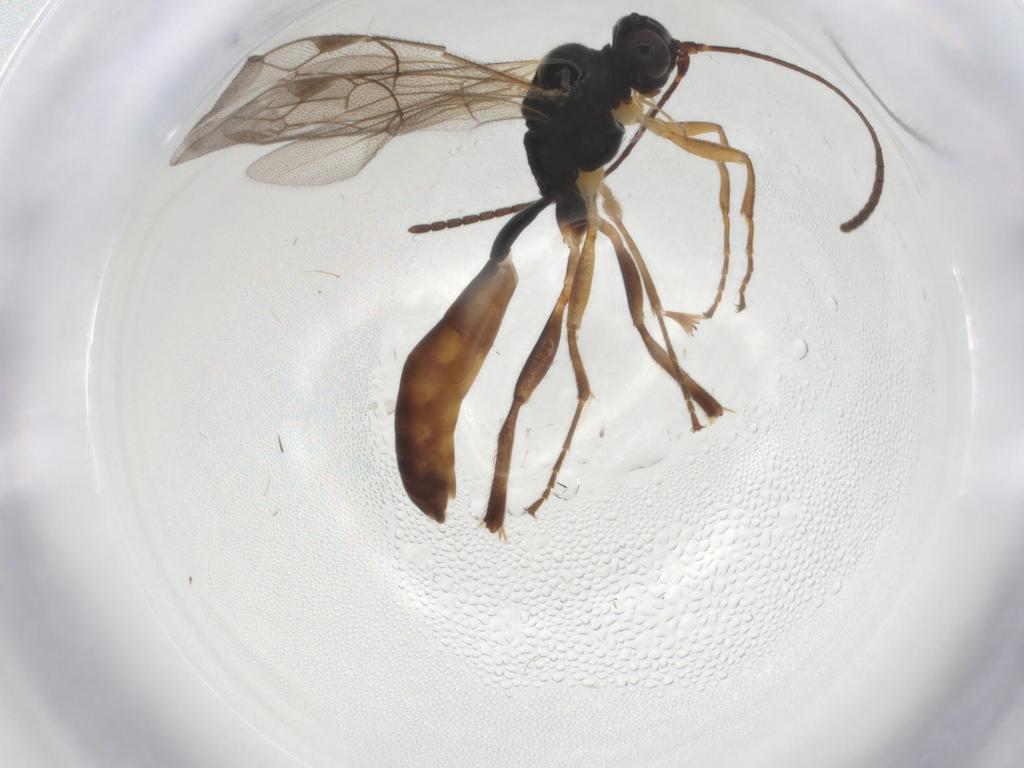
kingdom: Animalia
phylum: Arthropoda
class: Insecta
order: Hymenoptera
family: Ichneumonidae
